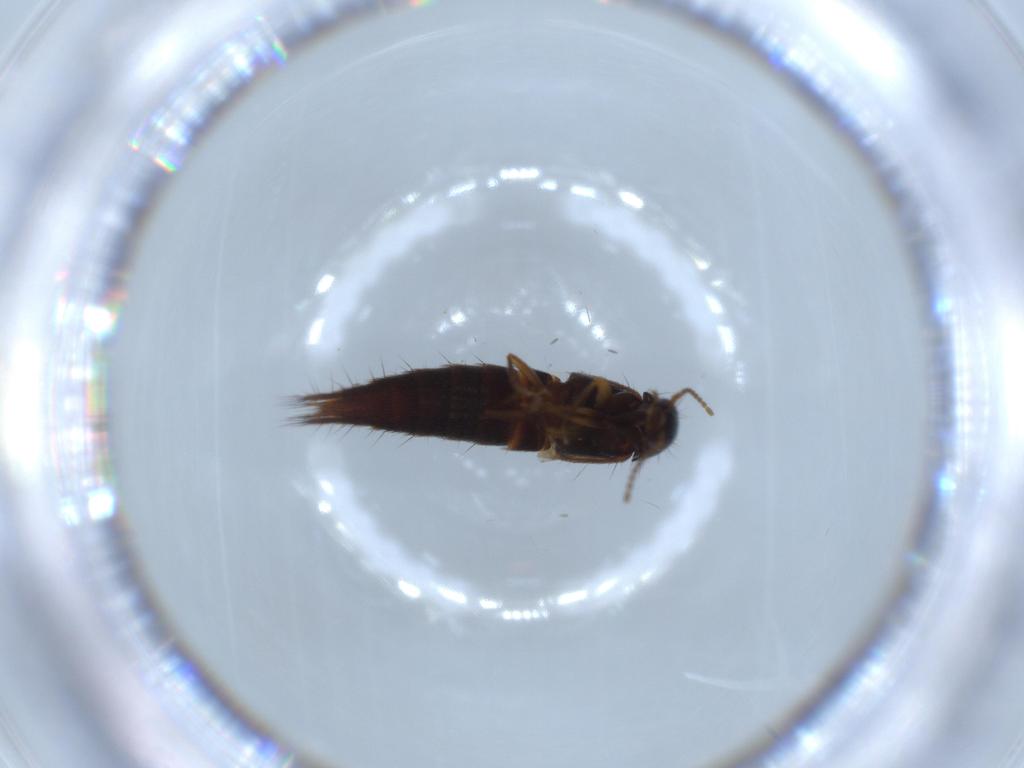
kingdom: Animalia
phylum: Arthropoda
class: Insecta
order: Coleoptera
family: Staphylinidae
